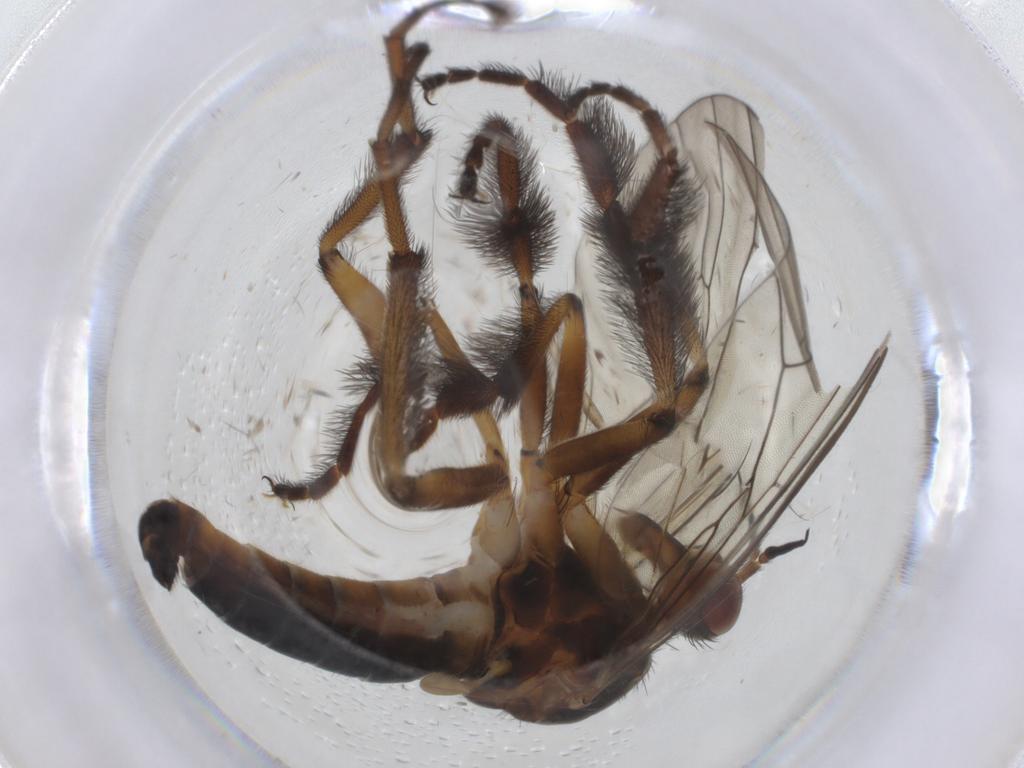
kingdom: Animalia
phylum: Arthropoda
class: Insecta
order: Diptera
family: Empididae
